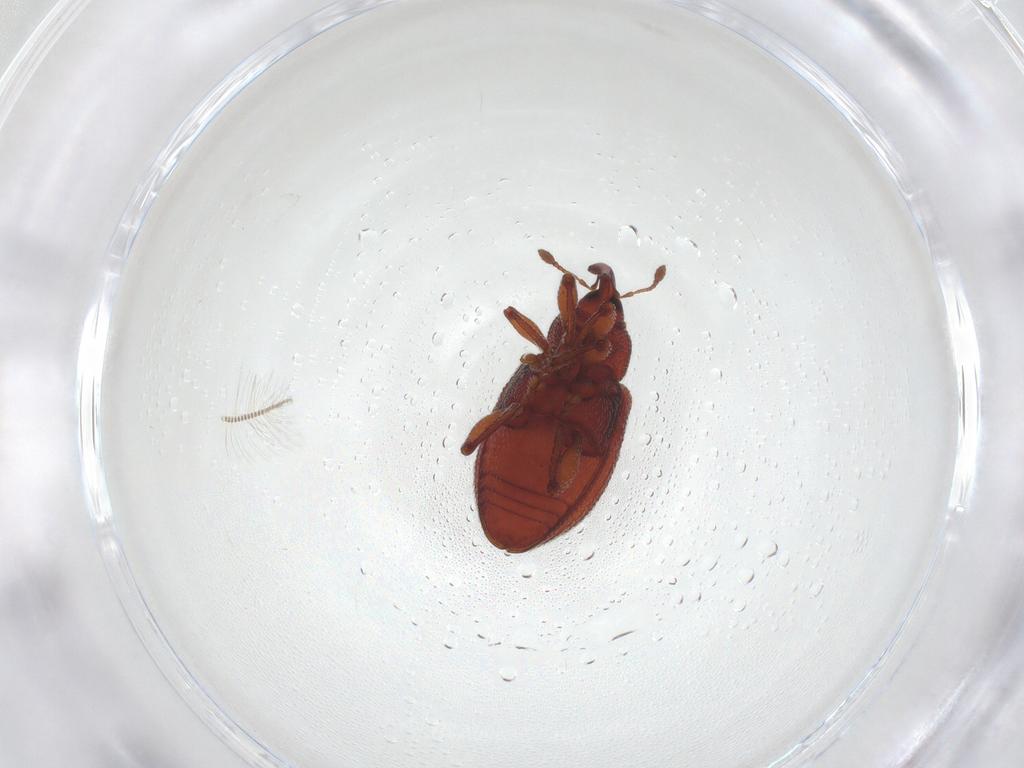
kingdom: Animalia
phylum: Arthropoda
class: Insecta
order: Coleoptera
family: Curculionidae
